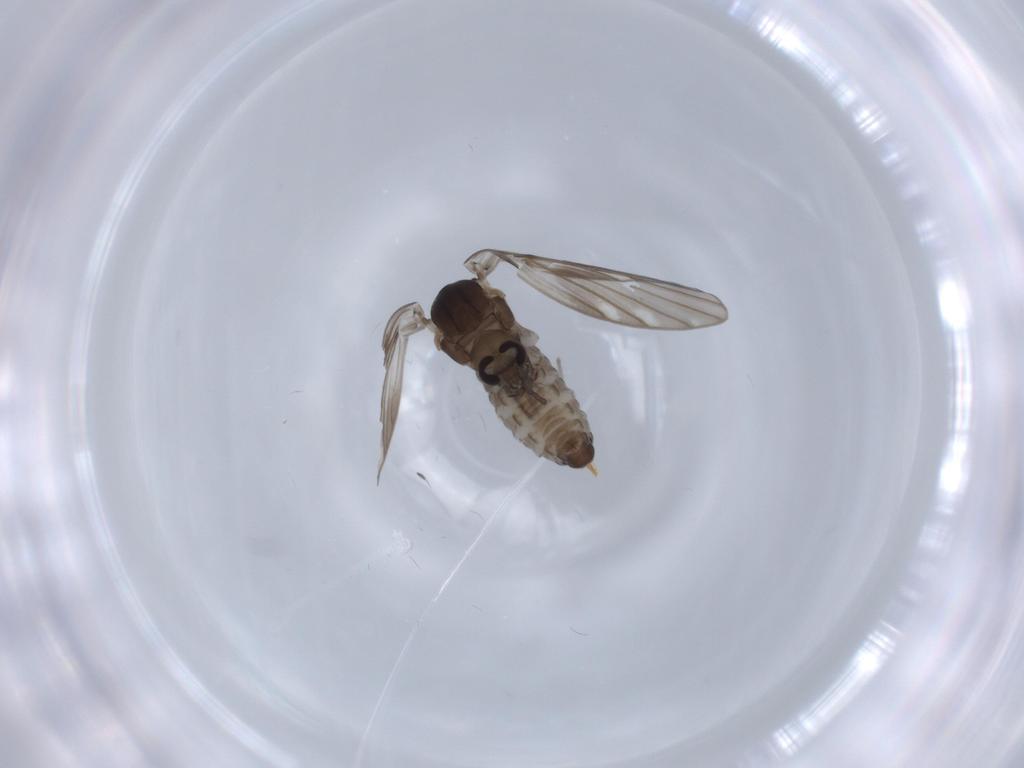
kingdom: Animalia
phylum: Arthropoda
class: Insecta
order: Diptera
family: Psychodidae
